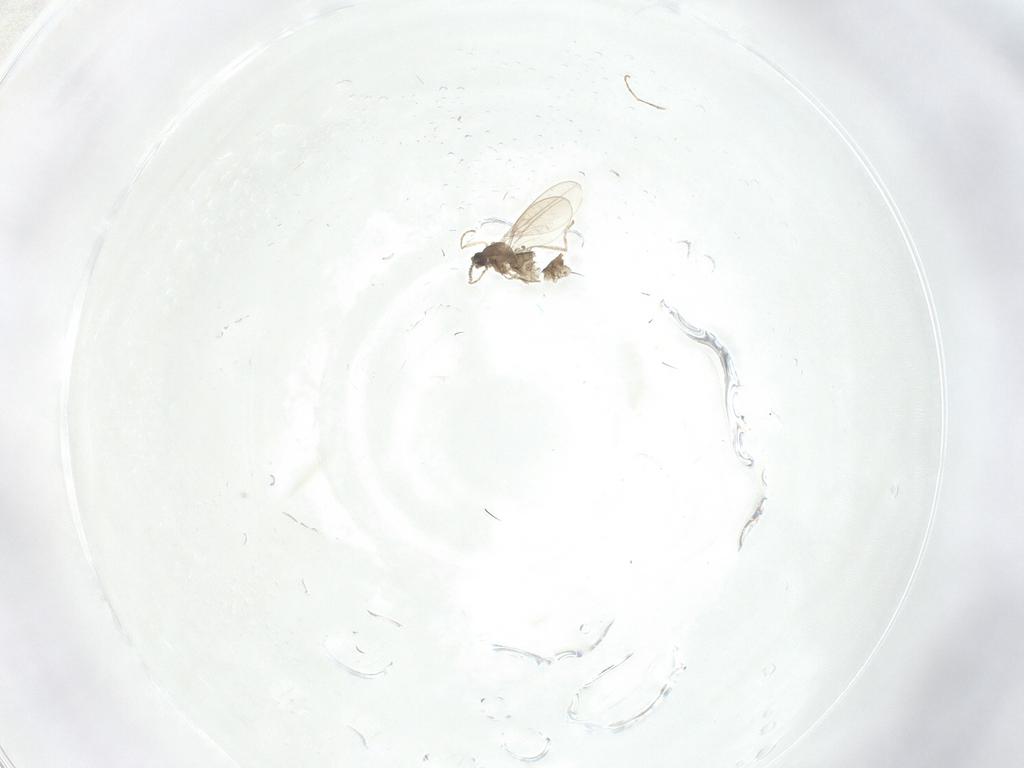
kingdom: Animalia
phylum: Arthropoda
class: Insecta
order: Diptera
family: Cecidomyiidae
